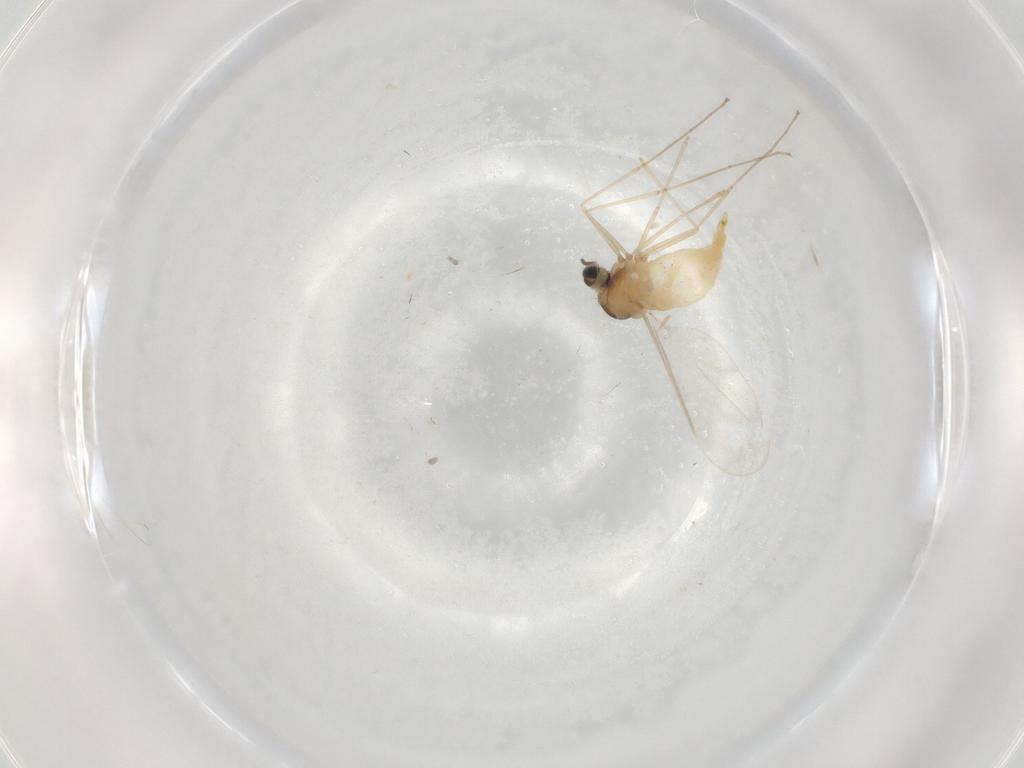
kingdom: Animalia
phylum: Arthropoda
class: Insecta
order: Diptera
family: Cecidomyiidae
